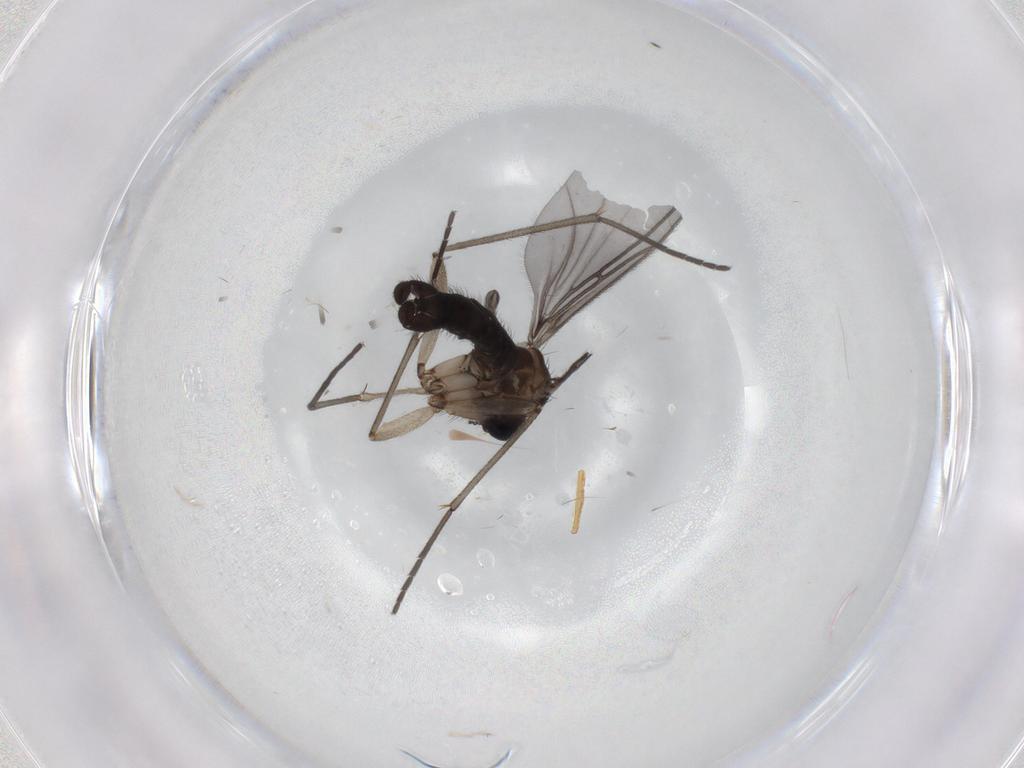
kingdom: Animalia
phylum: Arthropoda
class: Insecta
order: Diptera
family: Sciaridae
